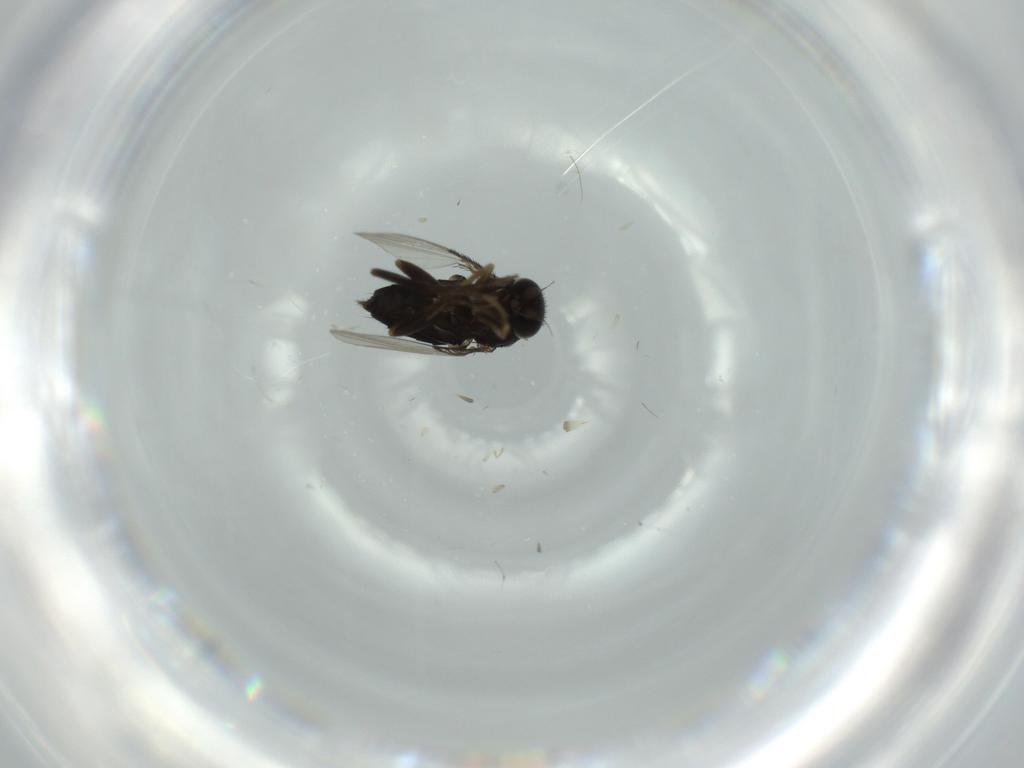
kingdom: Animalia
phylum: Arthropoda
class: Insecta
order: Diptera
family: Phoridae
